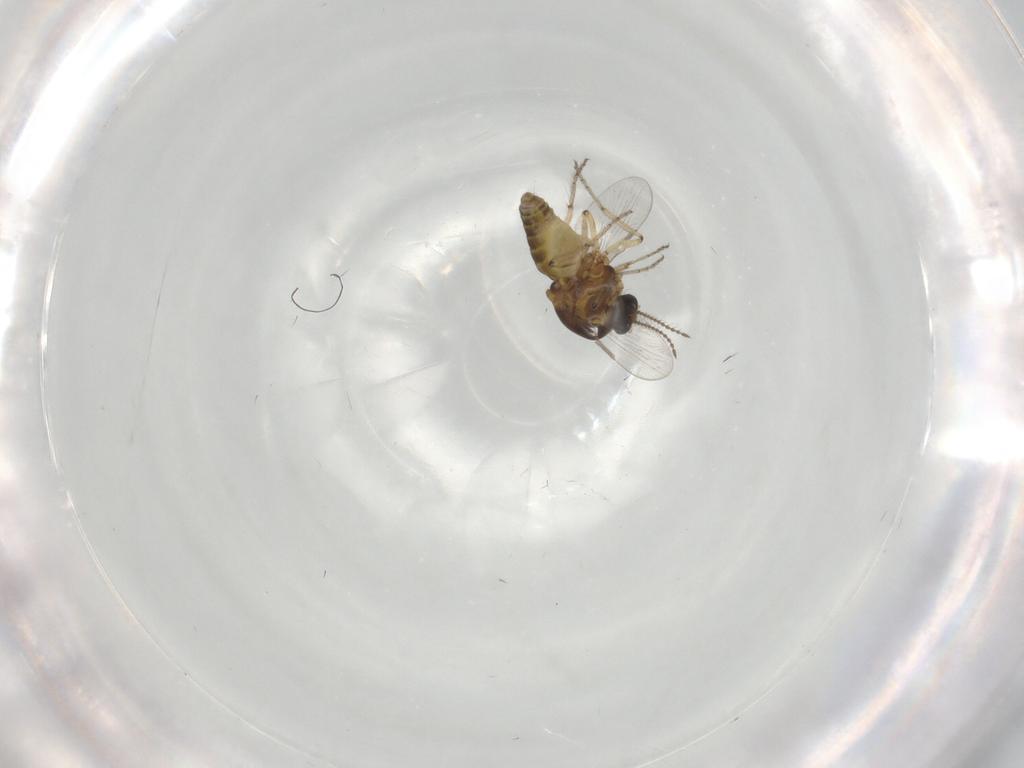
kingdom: Animalia
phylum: Arthropoda
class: Insecta
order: Diptera
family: Ceratopogonidae
